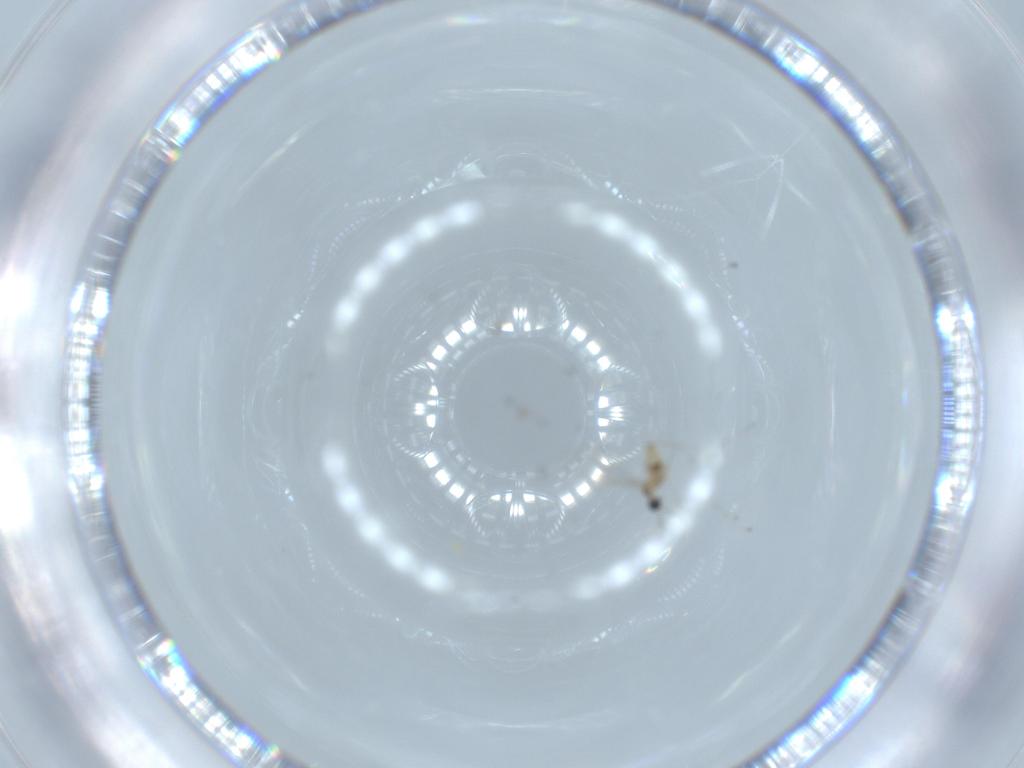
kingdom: Animalia
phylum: Arthropoda
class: Insecta
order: Diptera
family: Cecidomyiidae
